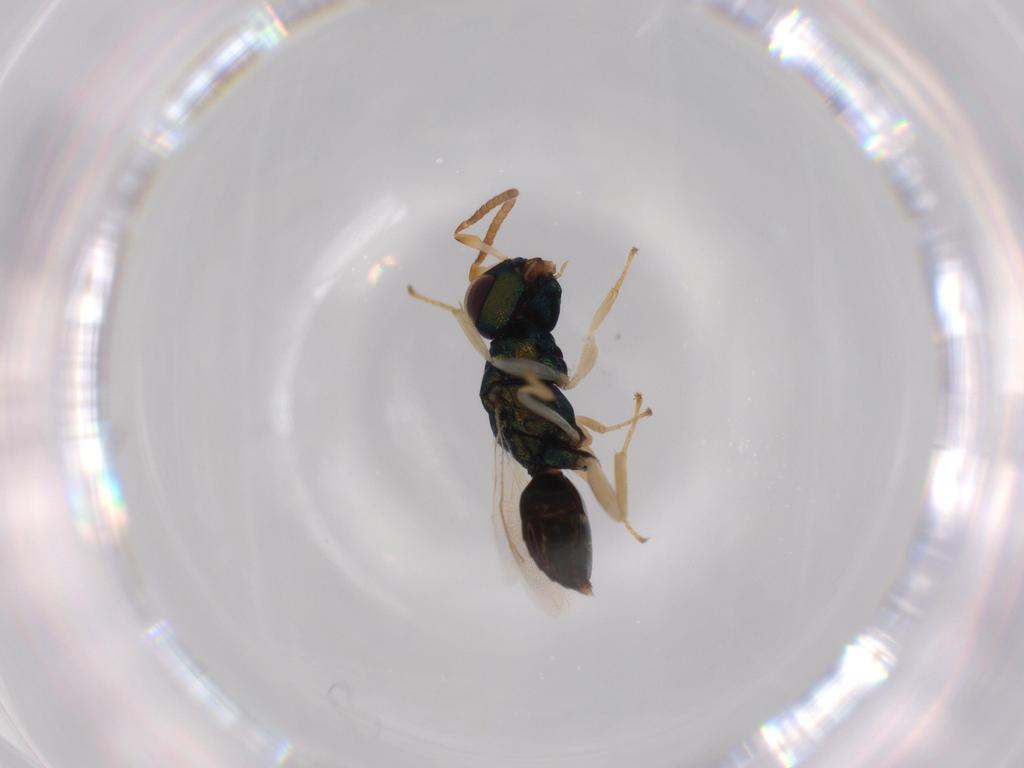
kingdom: Animalia
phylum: Arthropoda
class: Insecta
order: Hymenoptera
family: Pteromalidae
